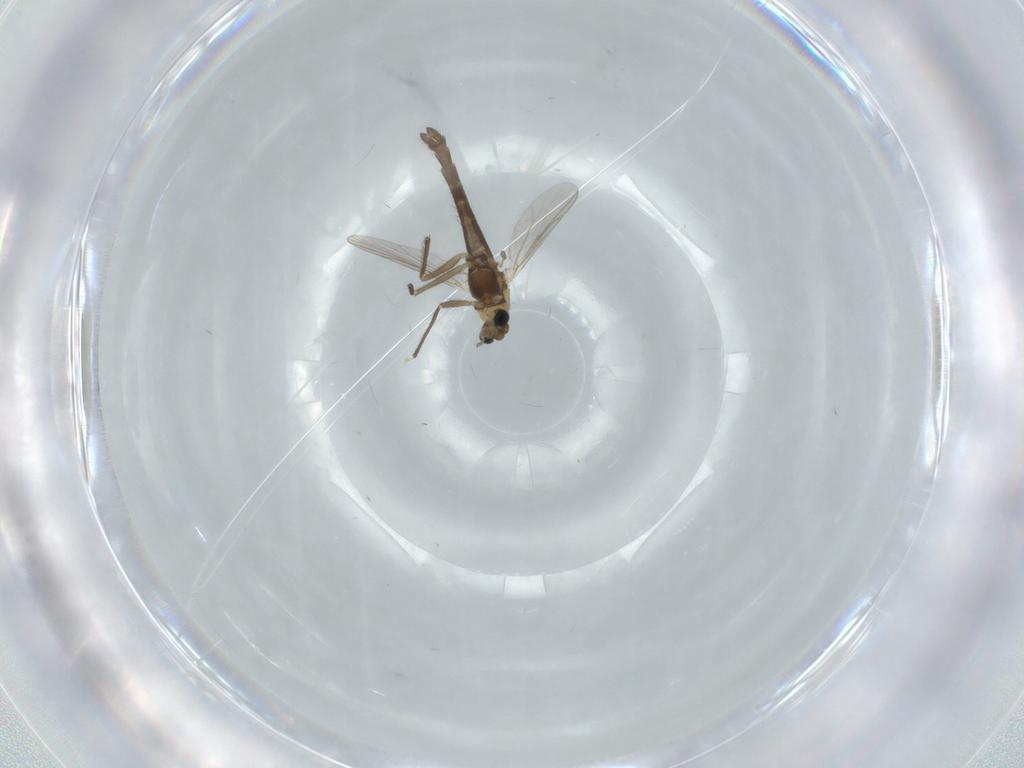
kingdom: Animalia
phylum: Arthropoda
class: Insecta
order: Diptera
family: Chironomidae
